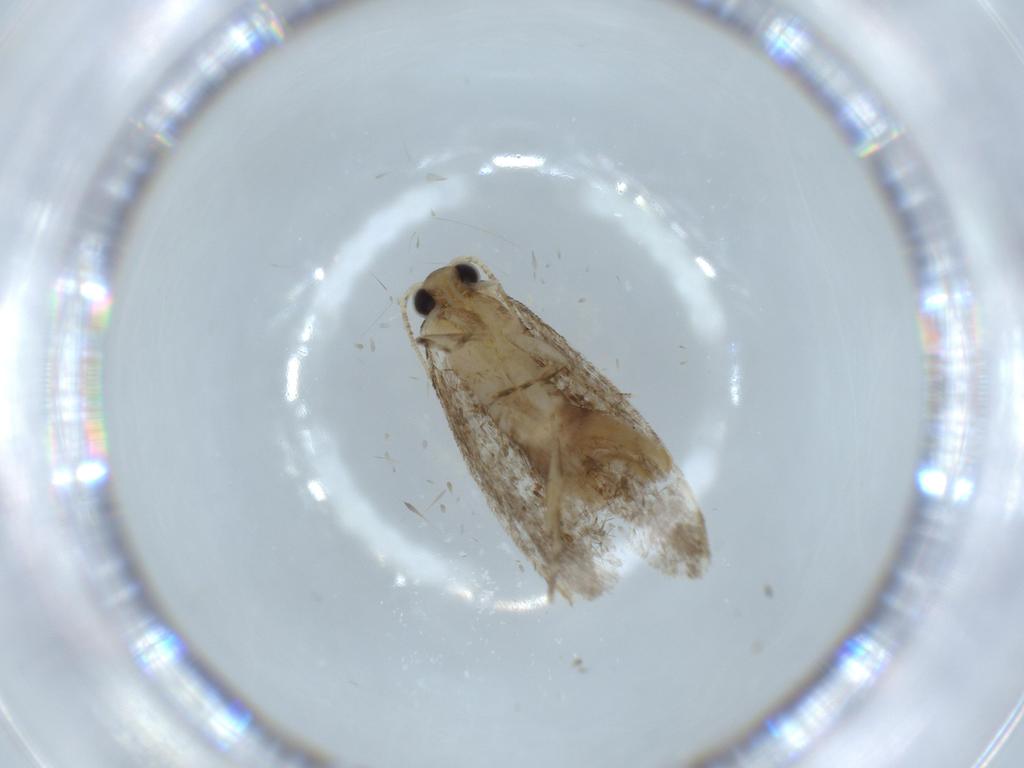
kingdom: Animalia
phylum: Arthropoda
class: Insecta
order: Lepidoptera
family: Tineidae
